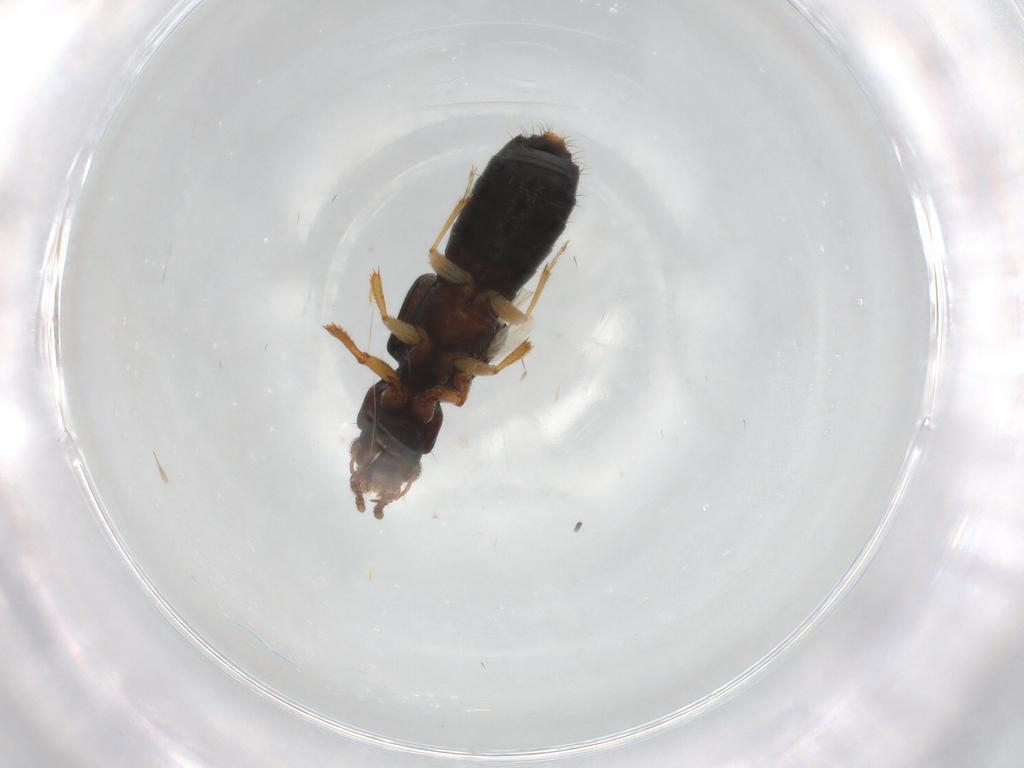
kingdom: Animalia
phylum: Arthropoda
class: Insecta
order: Coleoptera
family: Staphylinidae
